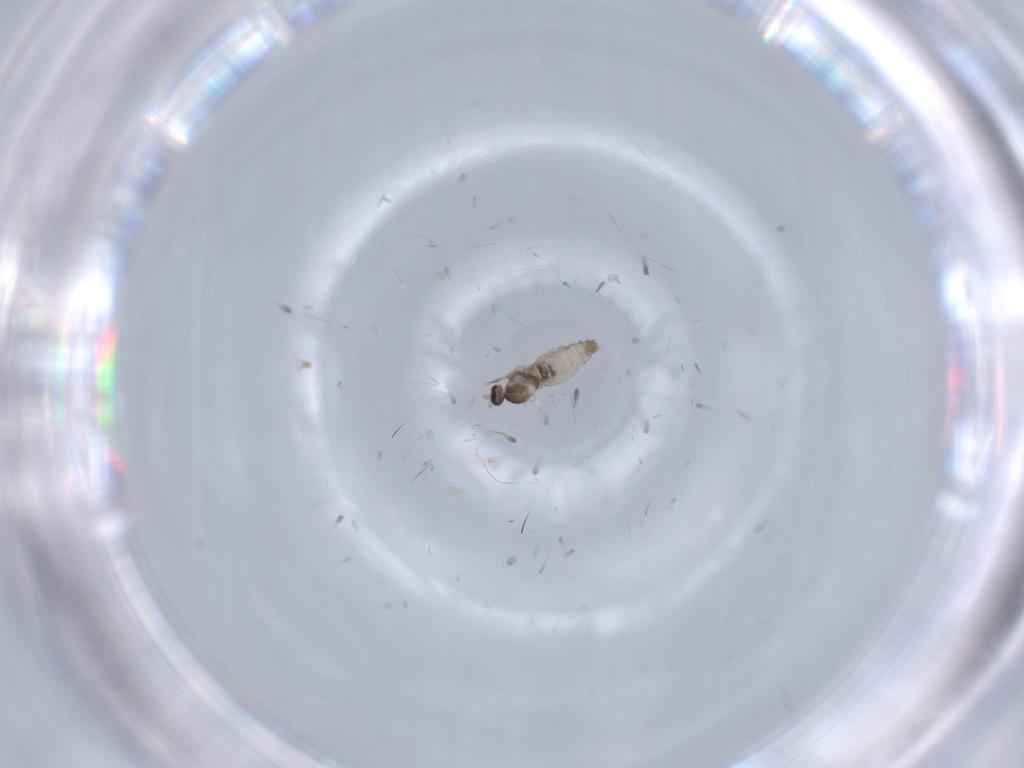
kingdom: Animalia
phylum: Arthropoda
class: Insecta
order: Diptera
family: Cecidomyiidae
